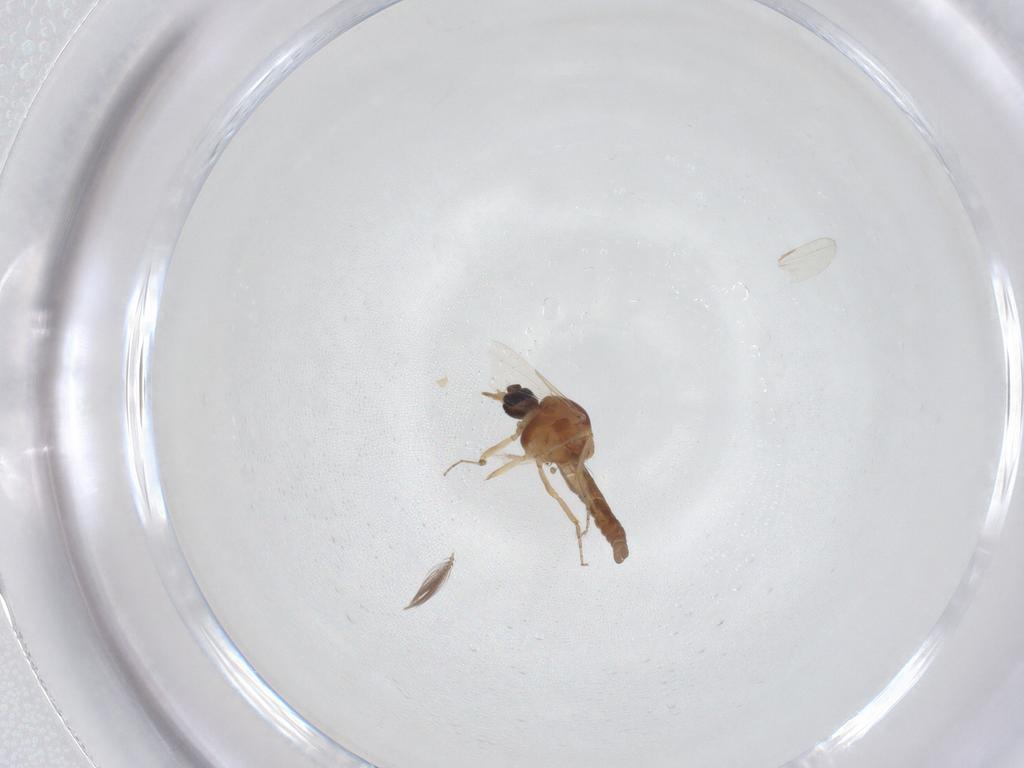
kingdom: Animalia
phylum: Arthropoda
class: Insecta
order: Diptera
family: Ceratopogonidae
